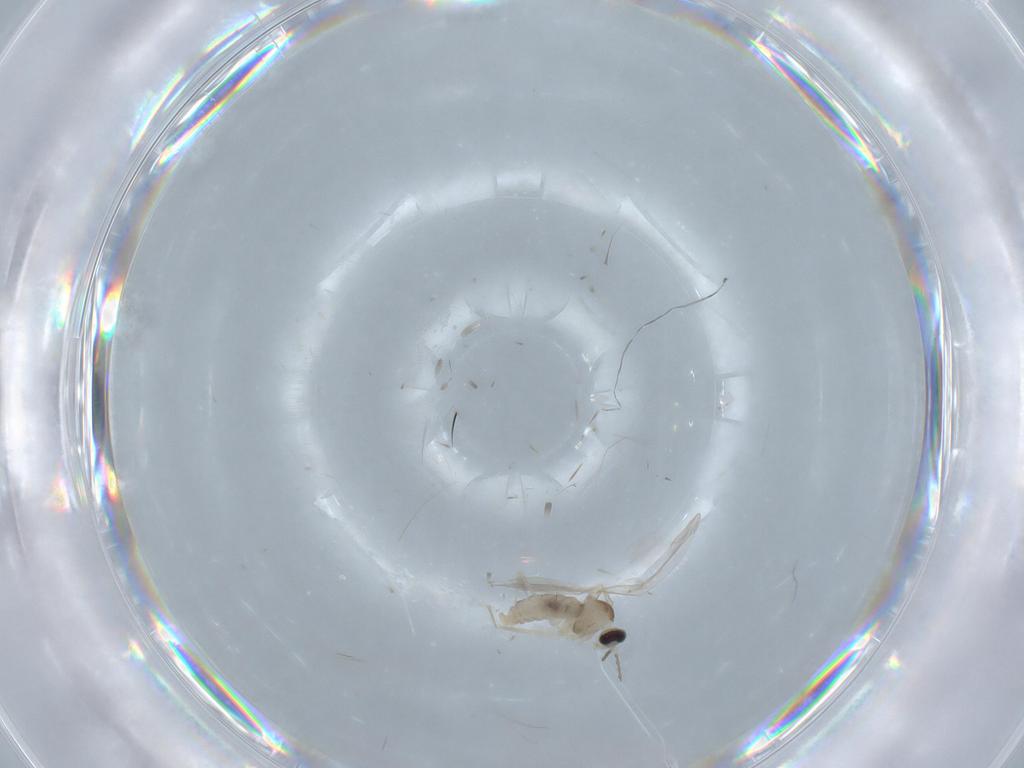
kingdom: Animalia
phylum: Arthropoda
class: Insecta
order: Diptera
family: Cecidomyiidae
